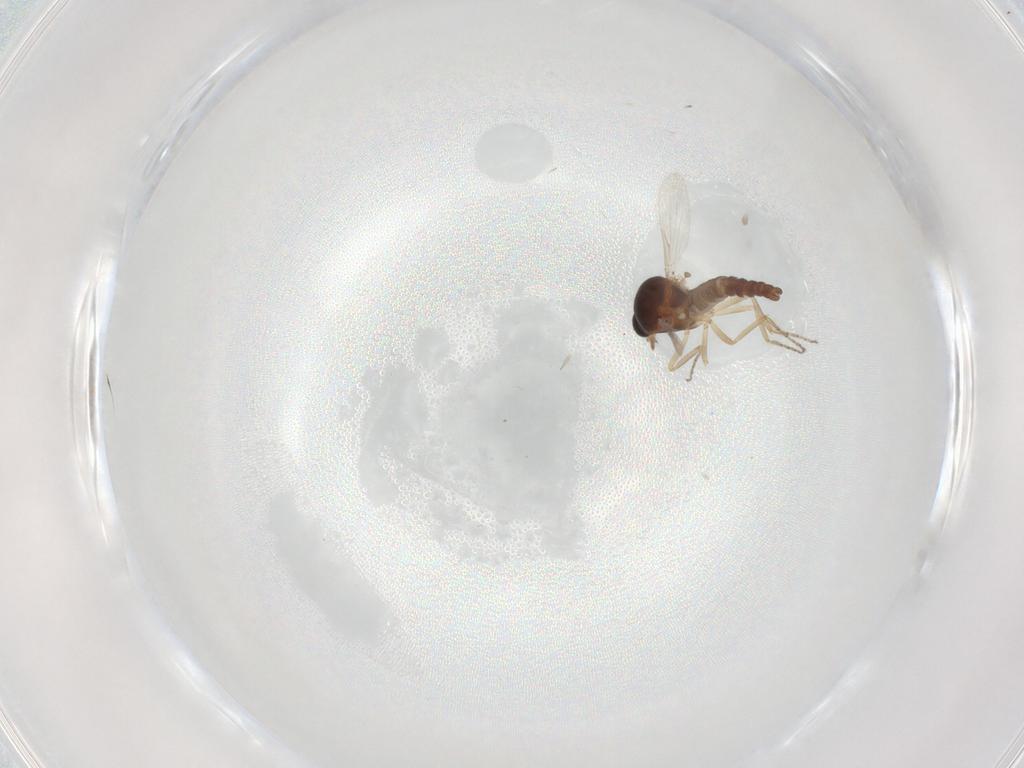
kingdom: Animalia
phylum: Arthropoda
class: Insecta
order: Diptera
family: Ceratopogonidae
